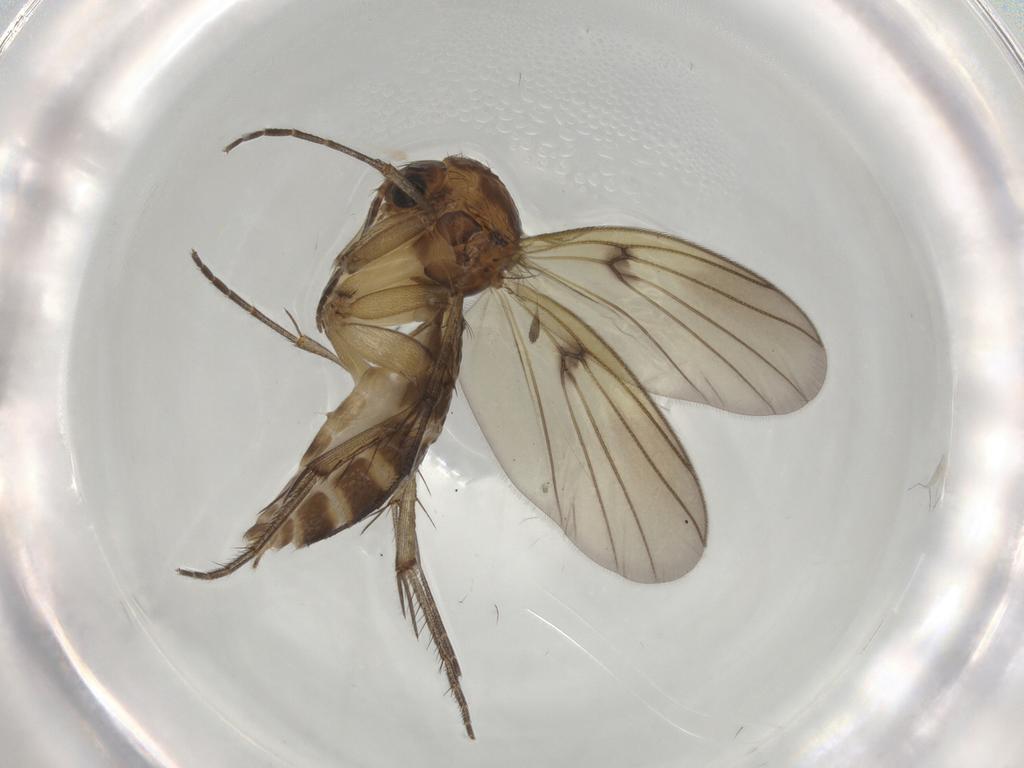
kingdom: Animalia
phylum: Arthropoda
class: Insecta
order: Diptera
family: Mycetophilidae
